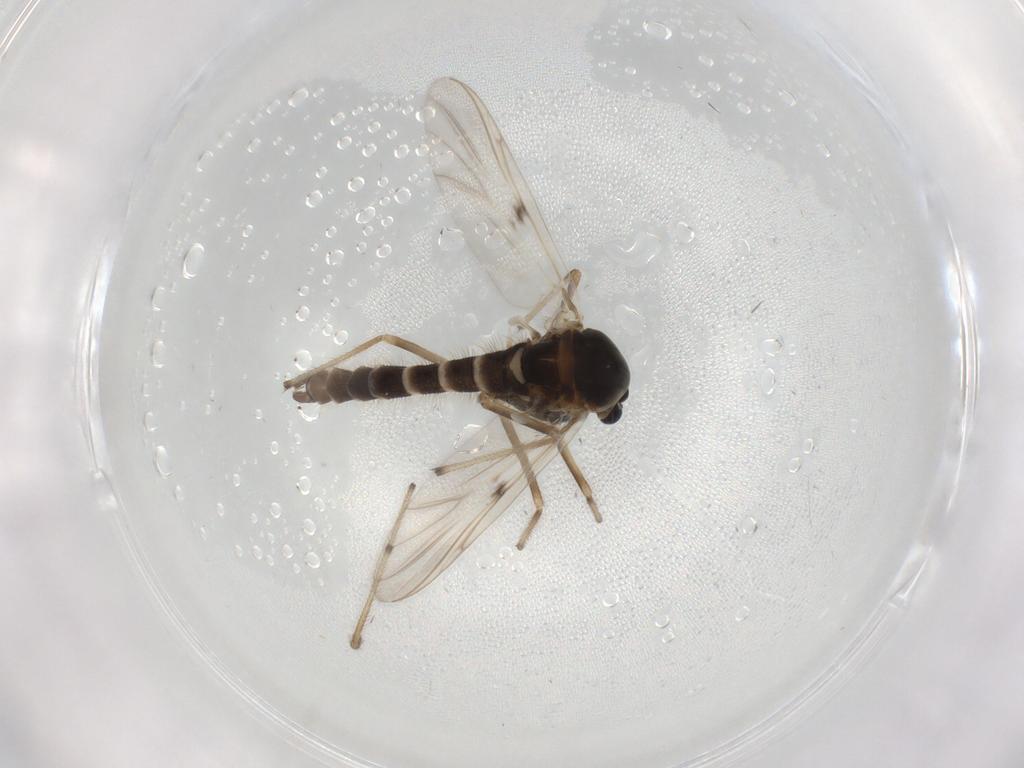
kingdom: Animalia
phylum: Arthropoda
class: Insecta
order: Diptera
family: Chironomidae
